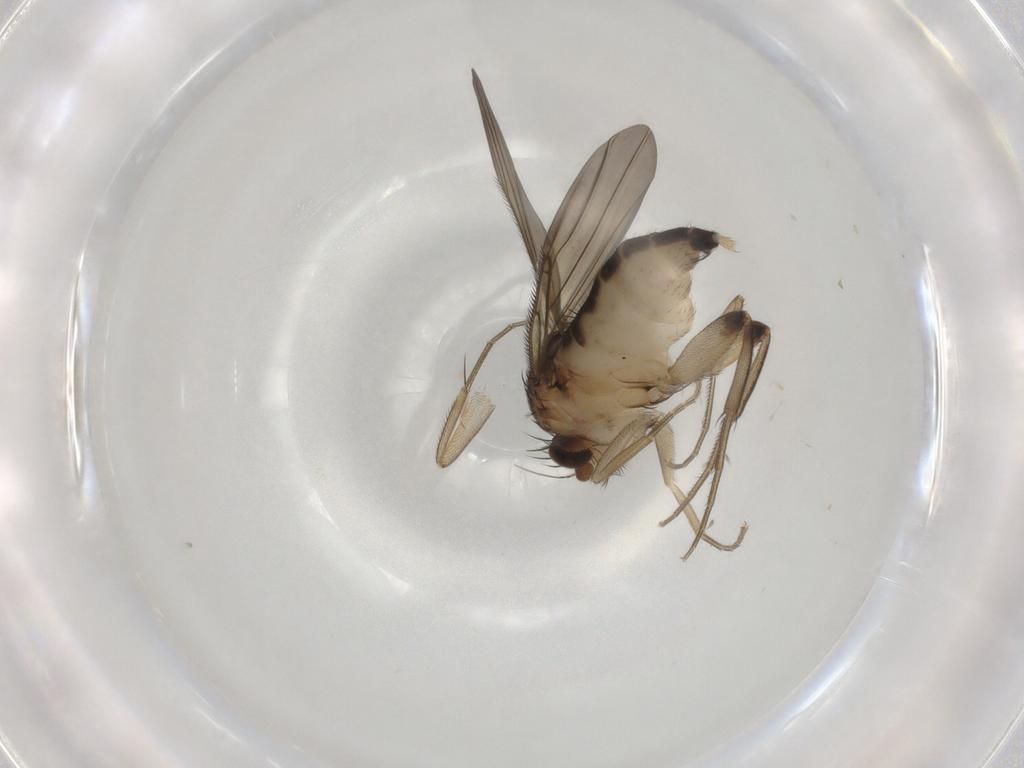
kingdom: Animalia
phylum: Arthropoda
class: Insecta
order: Diptera
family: Phoridae
